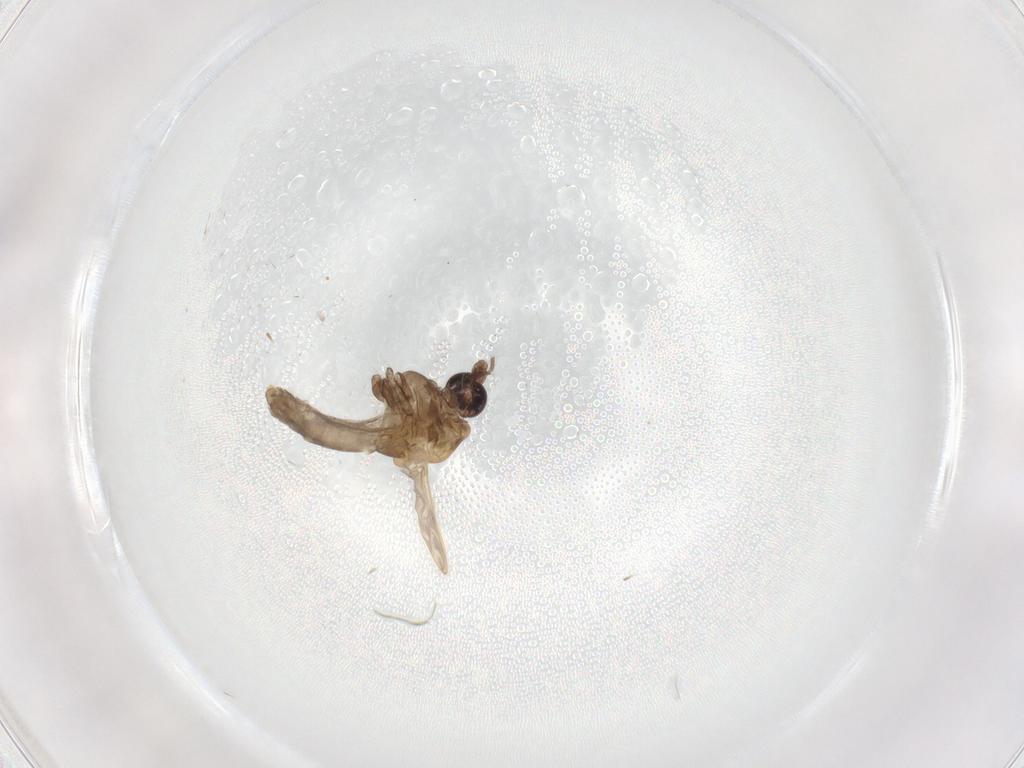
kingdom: Animalia
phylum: Arthropoda
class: Insecta
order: Diptera
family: Chironomidae
